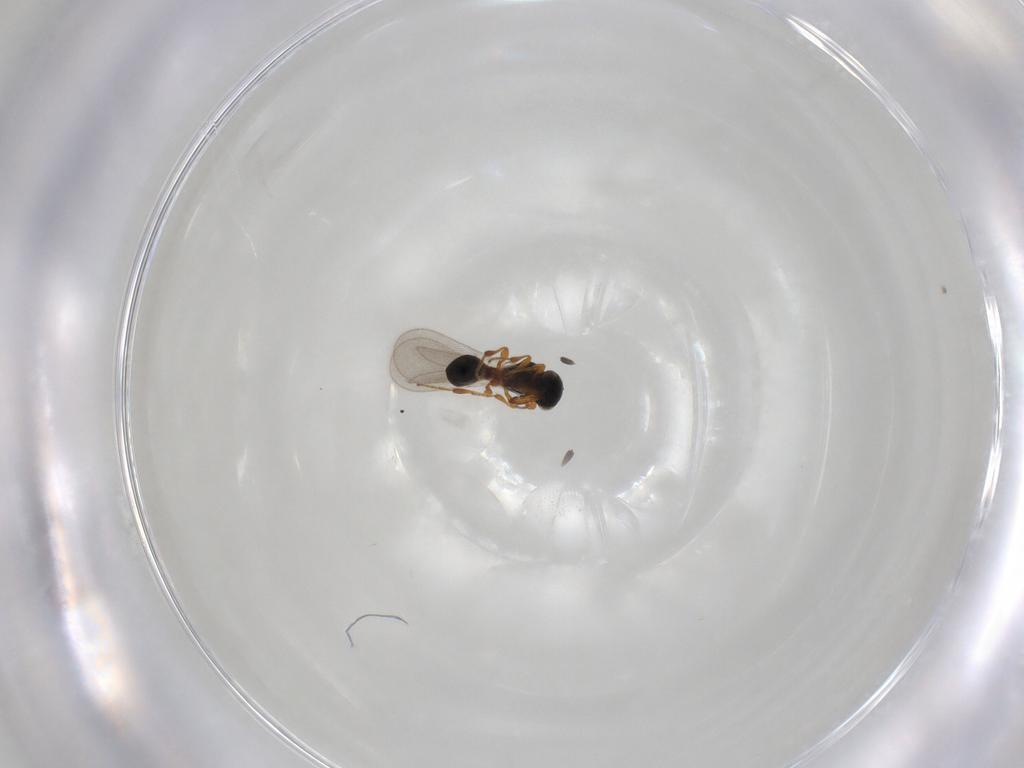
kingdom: Animalia
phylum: Arthropoda
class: Insecta
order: Hymenoptera
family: Platygastridae
